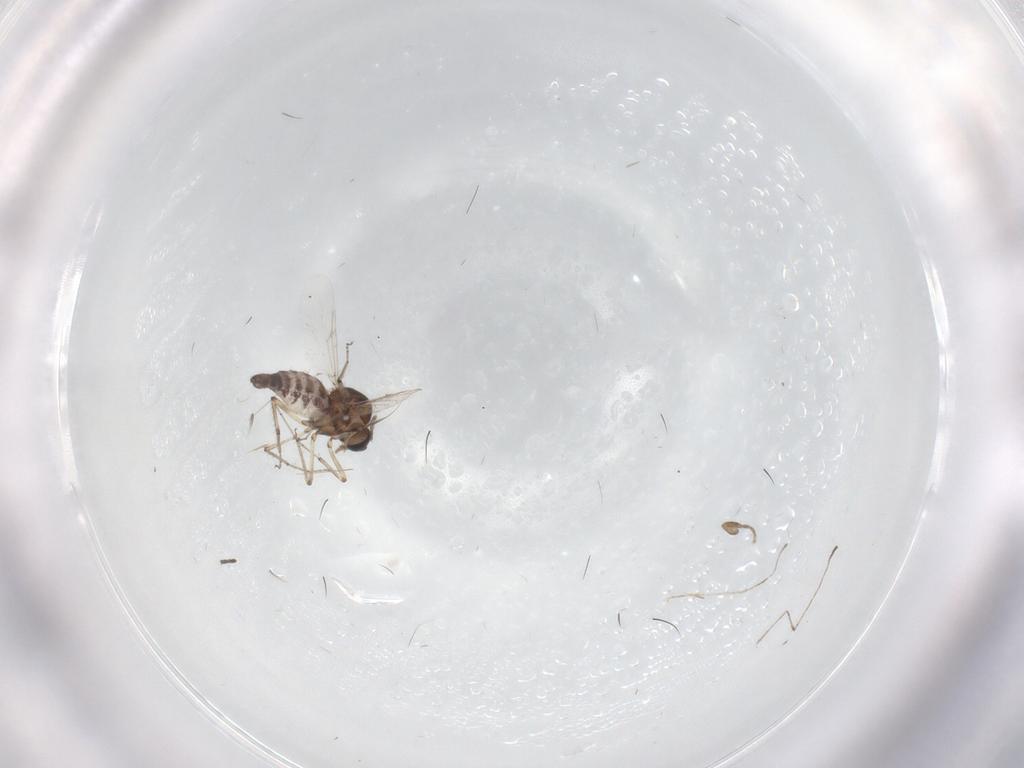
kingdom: Animalia
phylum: Arthropoda
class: Insecta
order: Diptera
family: Ceratopogonidae
